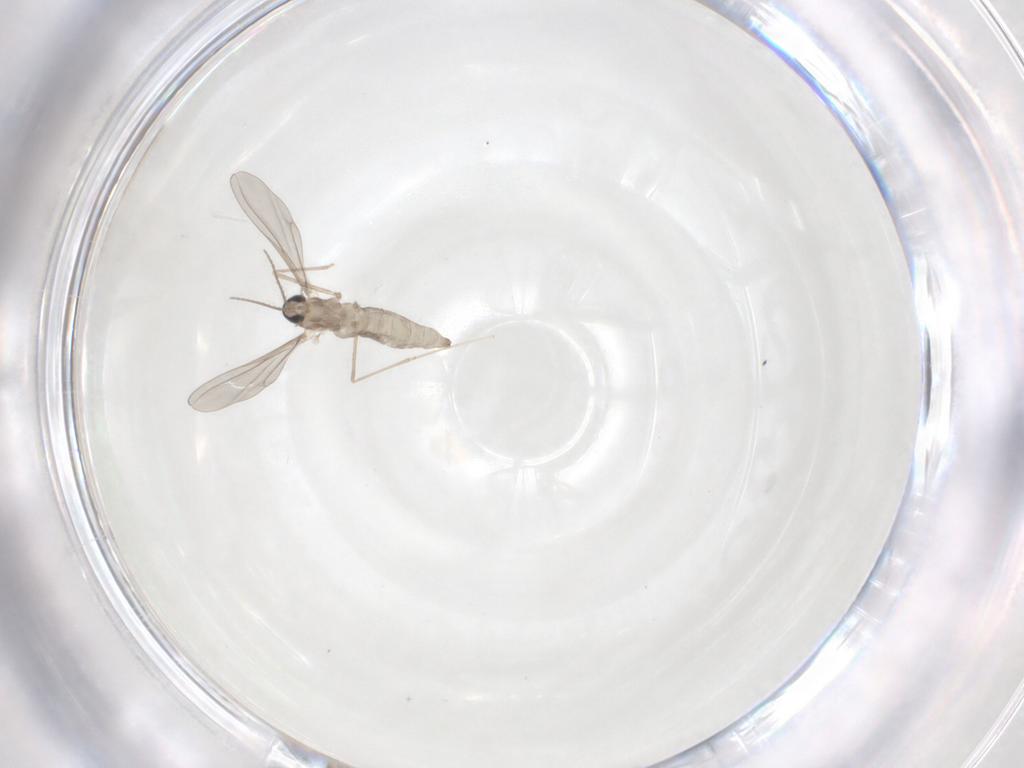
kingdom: Animalia
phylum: Arthropoda
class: Insecta
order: Diptera
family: Cecidomyiidae
